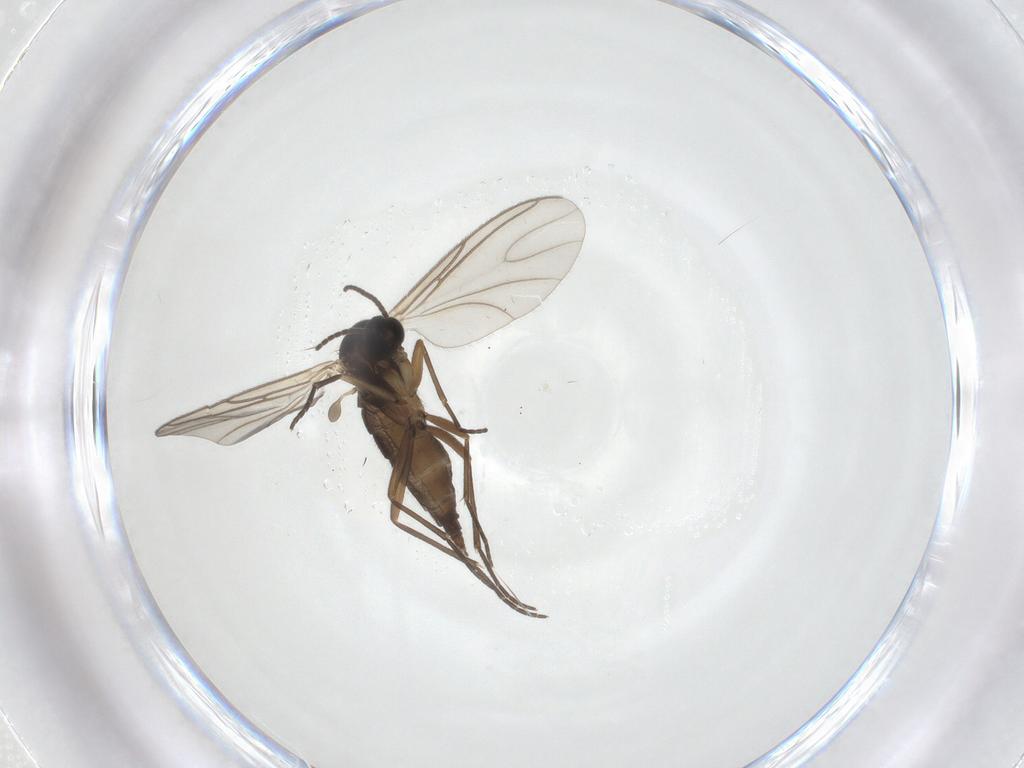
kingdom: Animalia
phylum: Arthropoda
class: Insecta
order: Diptera
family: Sciaridae
